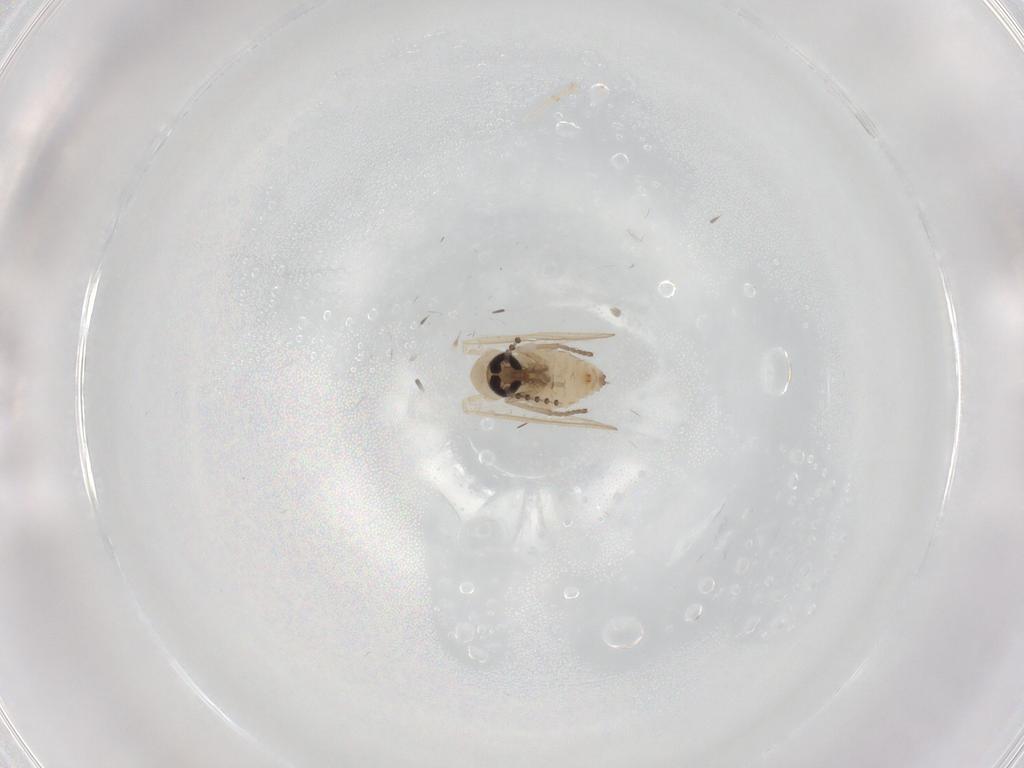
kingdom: Animalia
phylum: Arthropoda
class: Insecta
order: Diptera
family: Psychodidae
